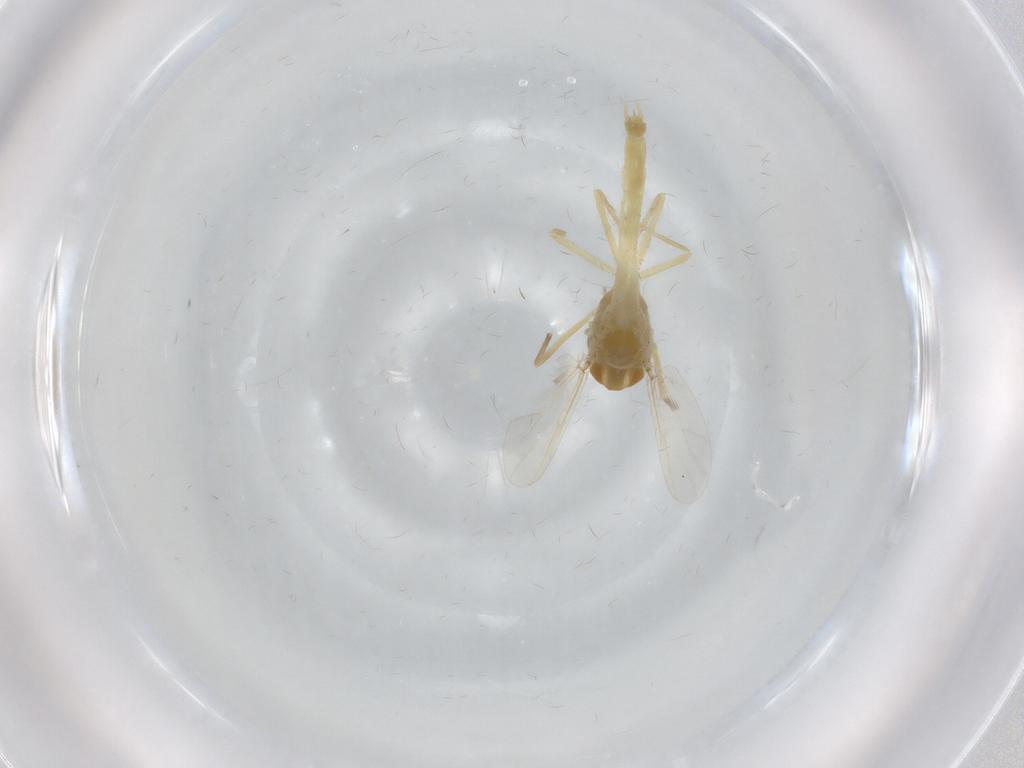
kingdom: Animalia
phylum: Arthropoda
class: Insecta
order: Diptera
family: Chironomidae
